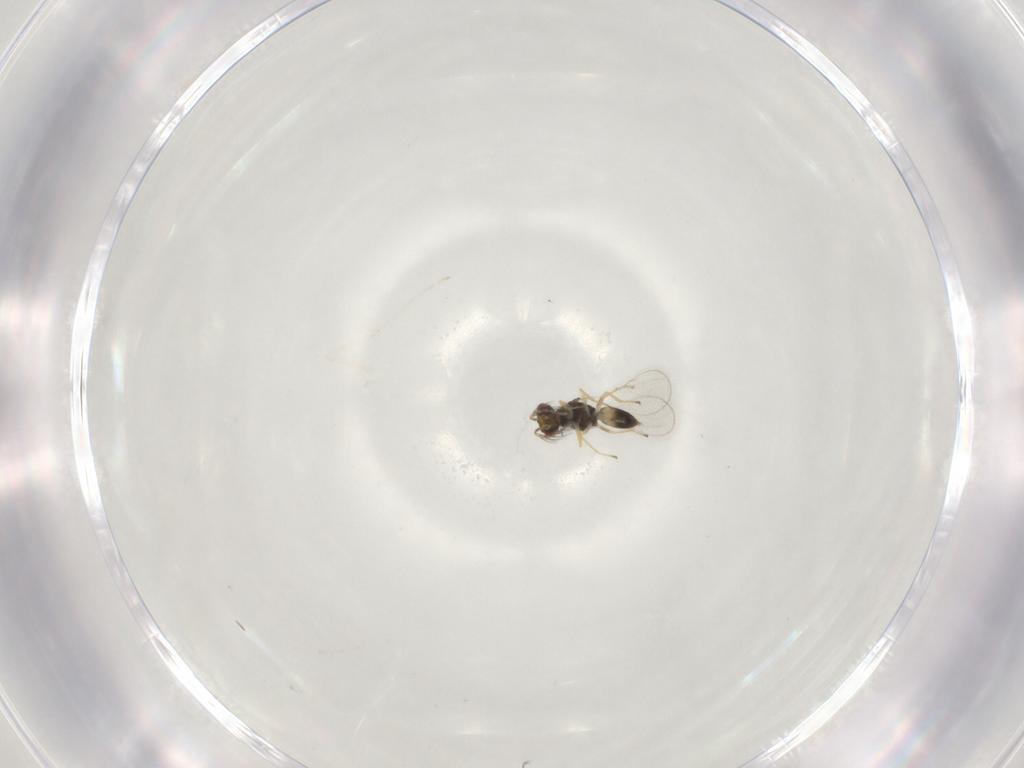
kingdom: Animalia
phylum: Arthropoda
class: Insecta
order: Hymenoptera
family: Eulophidae
